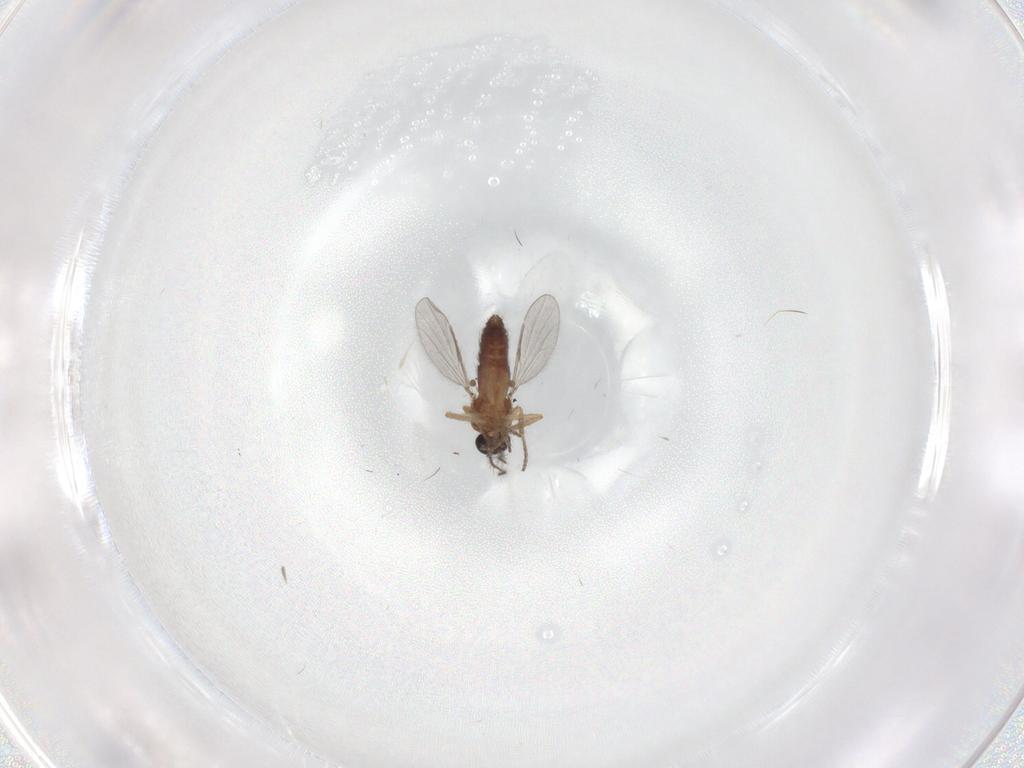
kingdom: Animalia
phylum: Arthropoda
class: Insecta
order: Diptera
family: Ceratopogonidae
